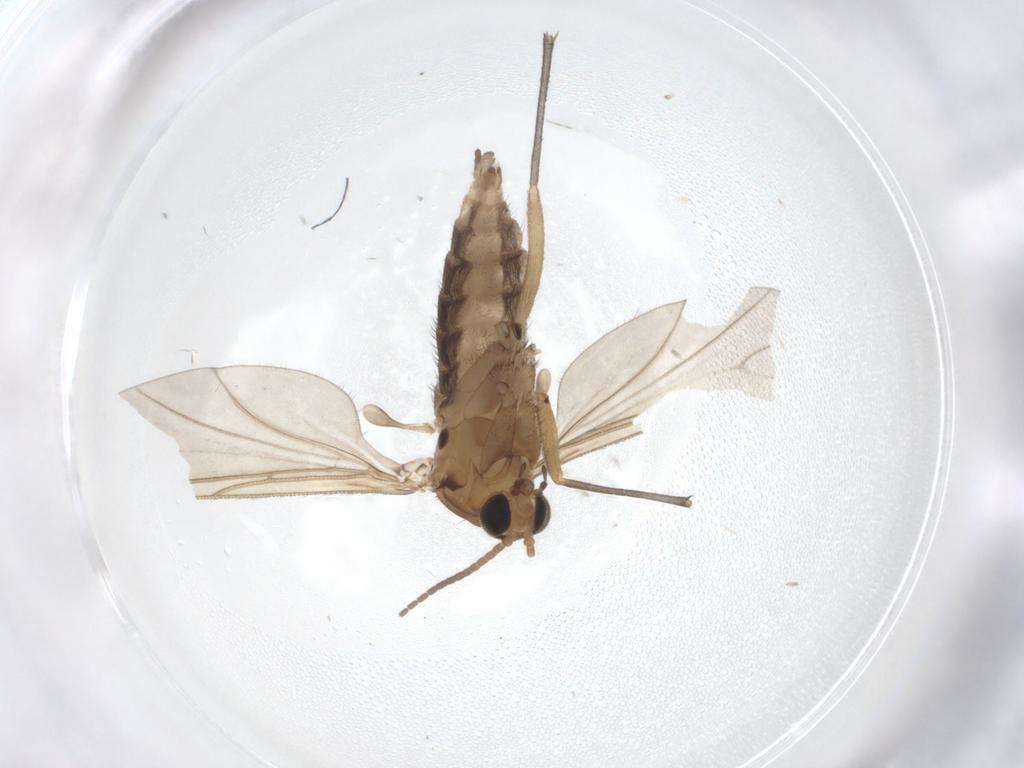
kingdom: Animalia
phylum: Arthropoda
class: Insecta
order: Diptera
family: Sciaridae
